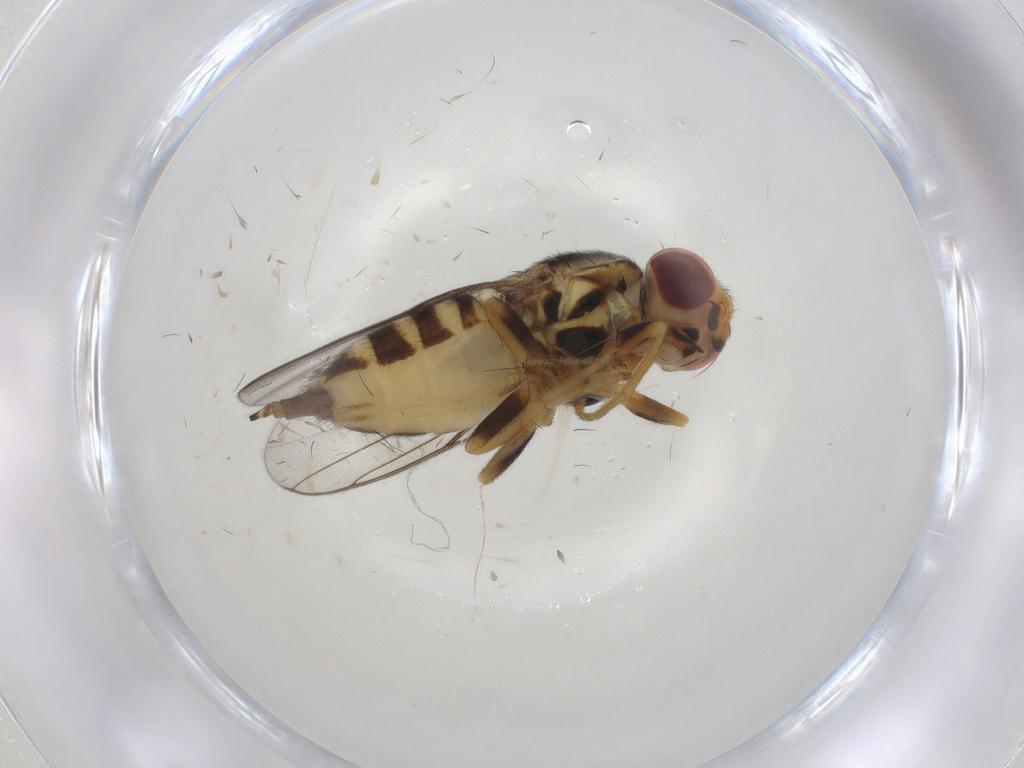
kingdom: Animalia
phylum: Arthropoda
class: Insecta
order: Diptera
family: Chloropidae
